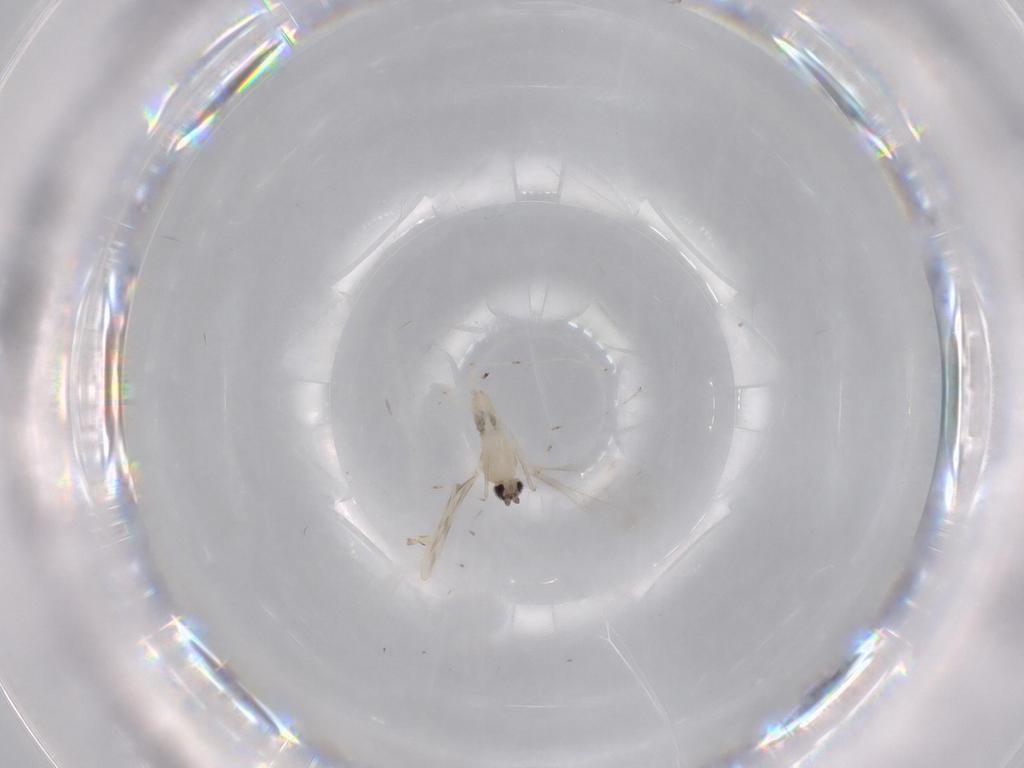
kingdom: Animalia
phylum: Arthropoda
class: Insecta
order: Diptera
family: Cecidomyiidae
